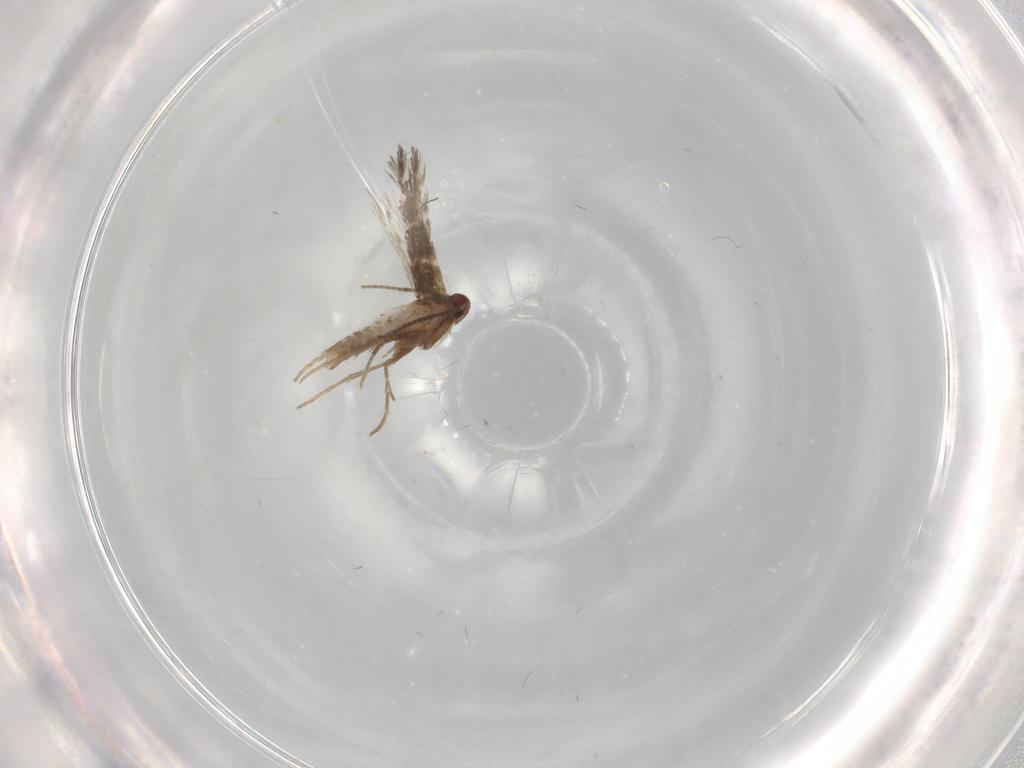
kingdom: Animalia
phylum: Arthropoda
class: Insecta
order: Lepidoptera
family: Gracillariidae
